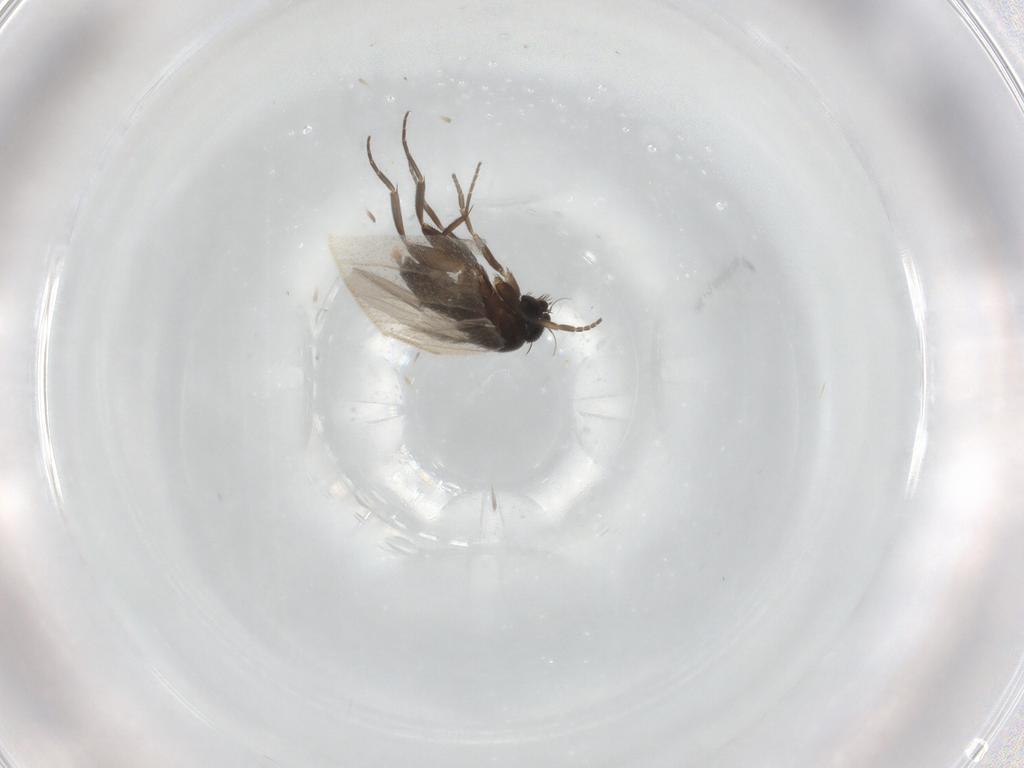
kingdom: Animalia
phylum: Arthropoda
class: Insecta
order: Diptera
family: Phoridae
